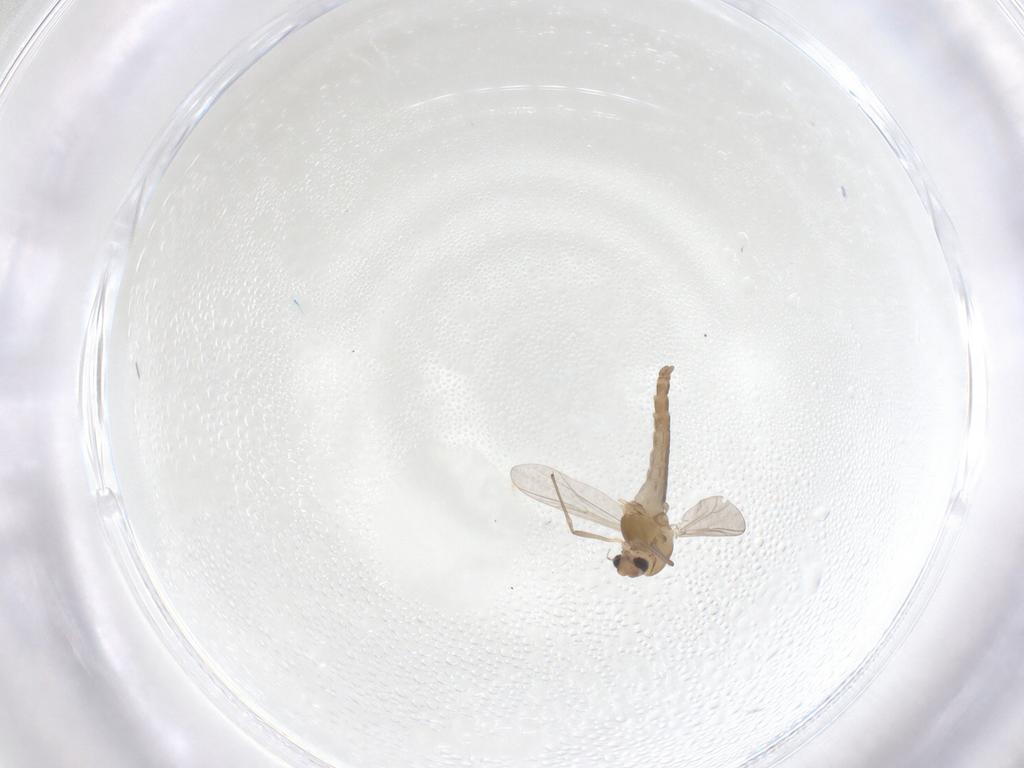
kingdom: Animalia
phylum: Arthropoda
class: Insecta
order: Diptera
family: Chironomidae
